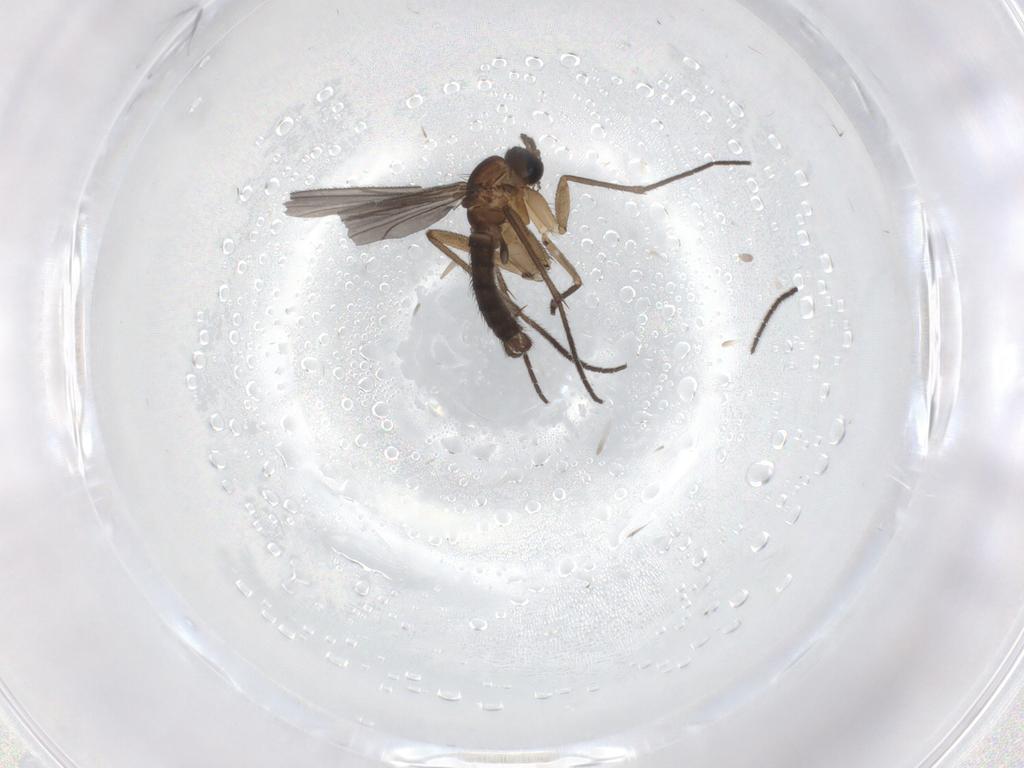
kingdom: Animalia
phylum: Arthropoda
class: Insecta
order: Diptera
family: Sciaridae
